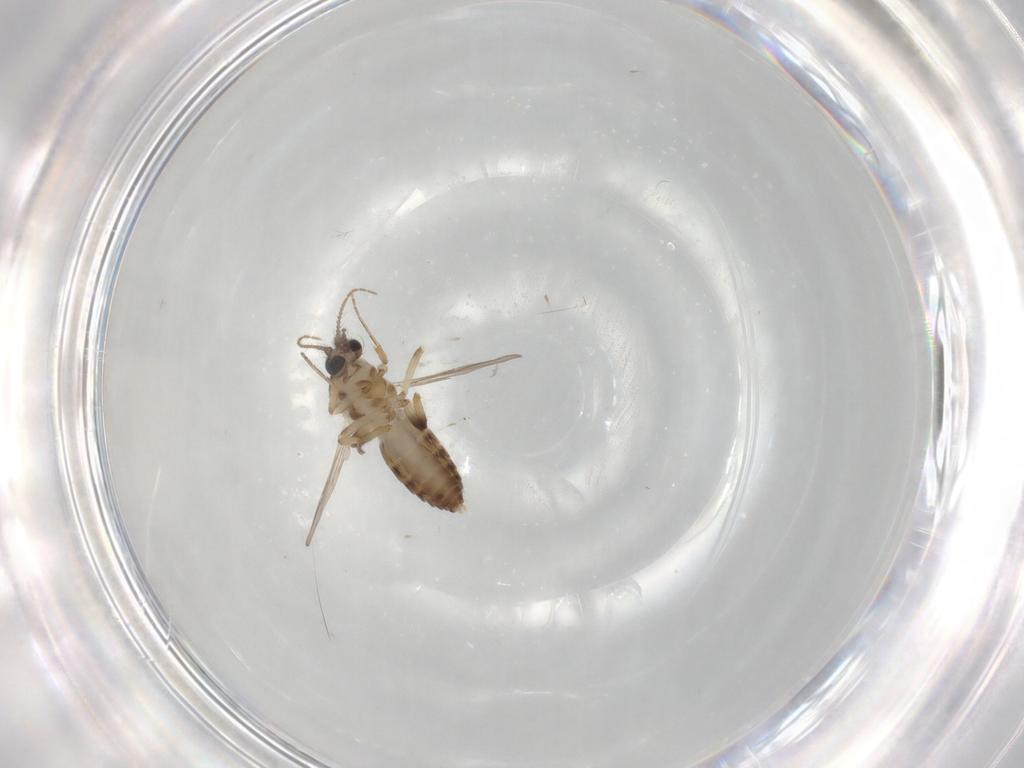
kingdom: Animalia
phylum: Arthropoda
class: Insecta
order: Diptera
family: Ceratopogonidae
